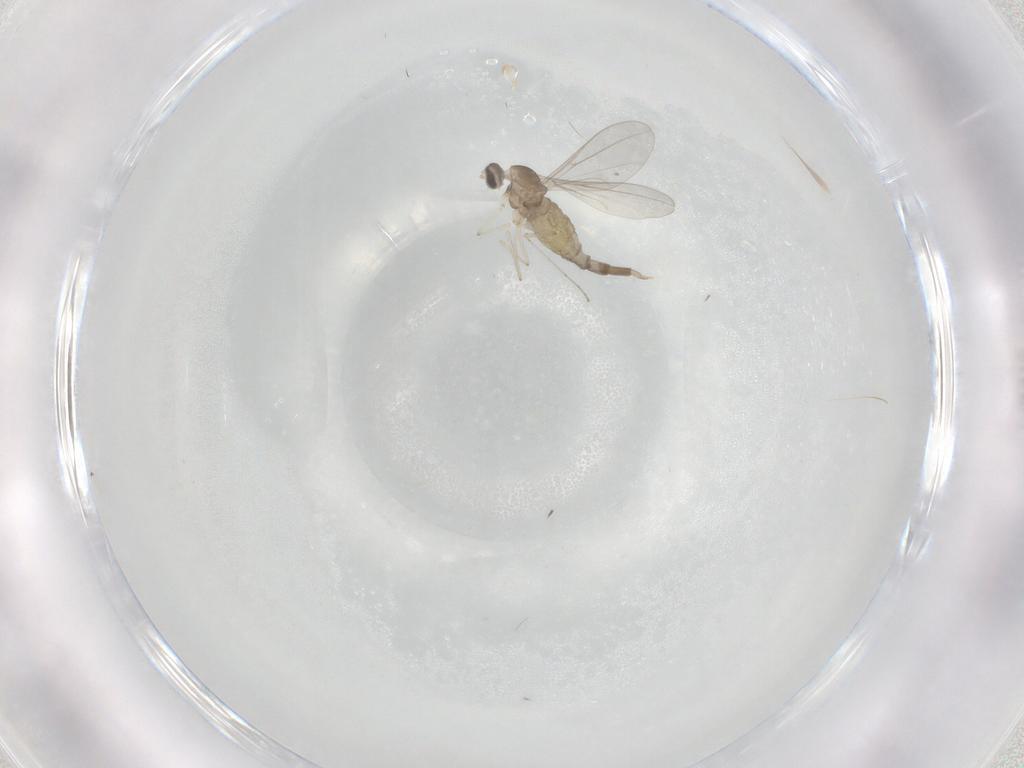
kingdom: Animalia
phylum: Arthropoda
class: Insecta
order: Diptera
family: Cecidomyiidae
